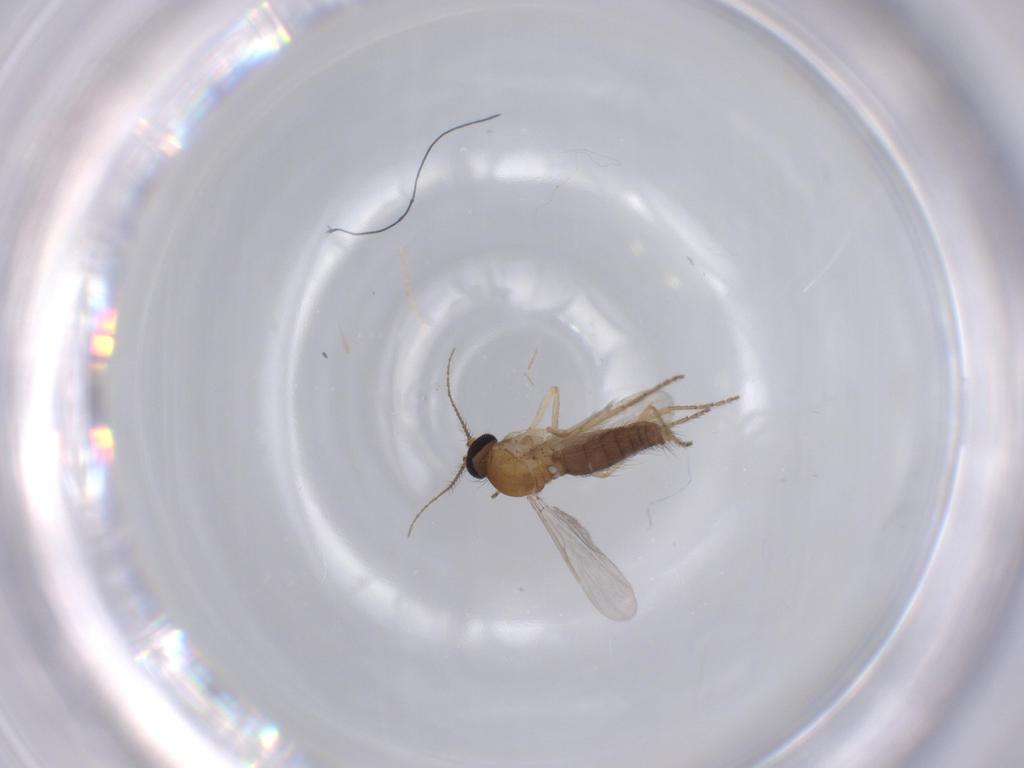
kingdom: Animalia
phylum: Arthropoda
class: Insecta
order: Diptera
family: Ceratopogonidae
